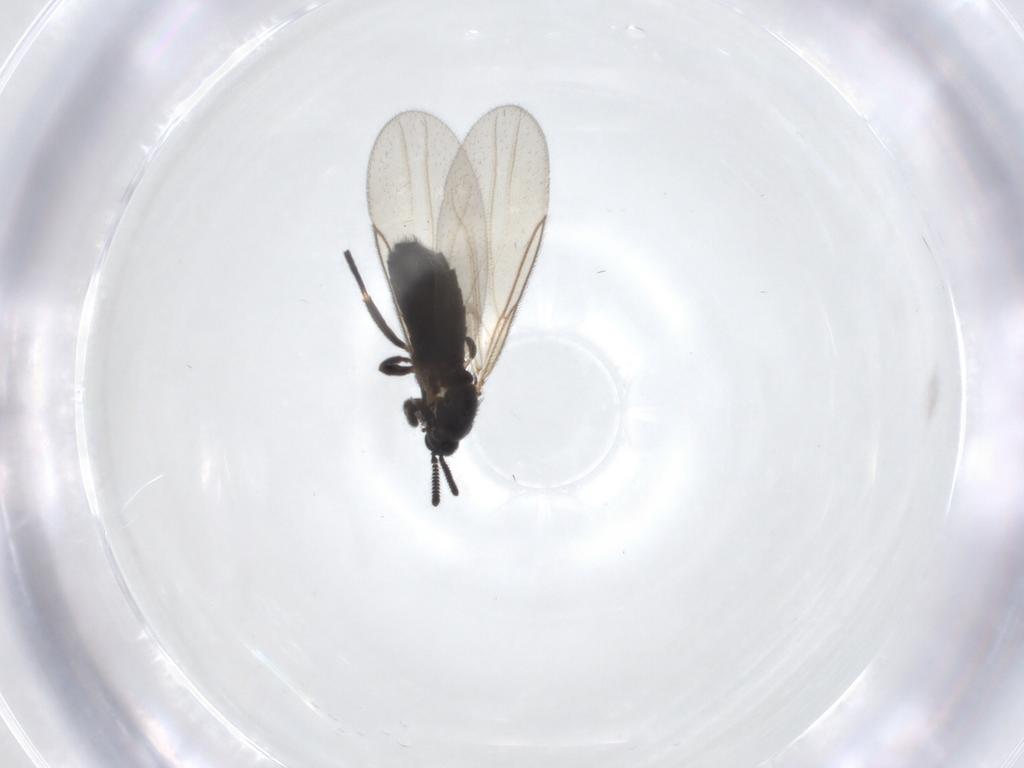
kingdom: Animalia
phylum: Arthropoda
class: Insecta
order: Diptera
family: Scatopsidae
